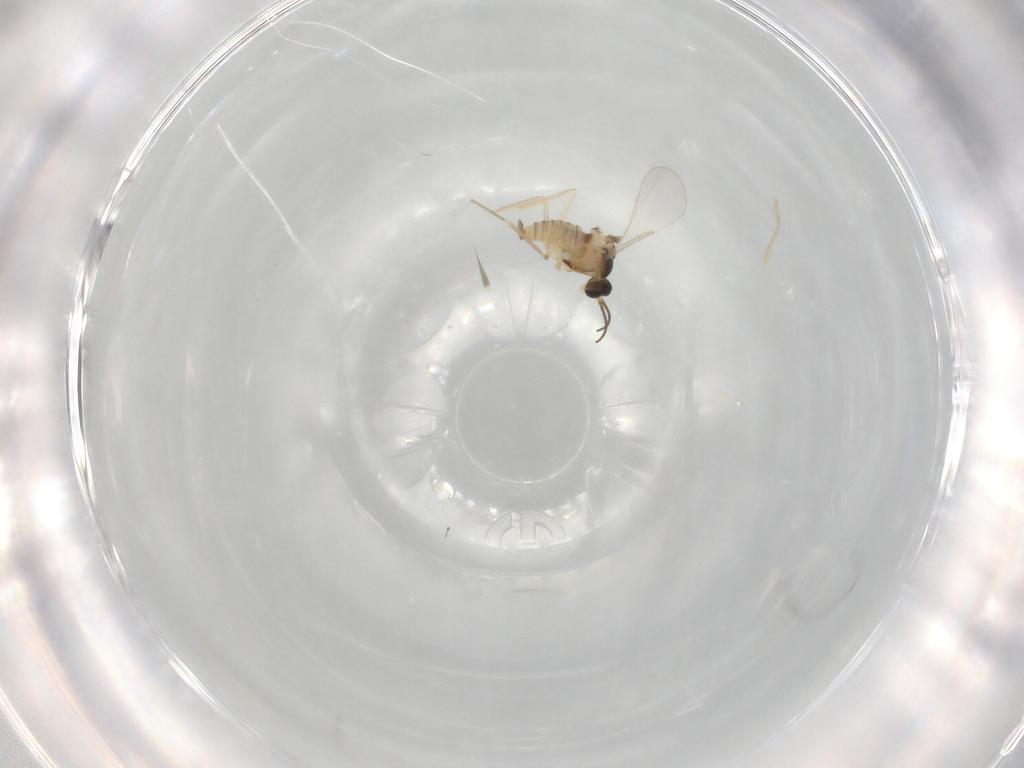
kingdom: Animalia
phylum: Arthropoda
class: Insecta
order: Diptera
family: Cecidomyiidae
